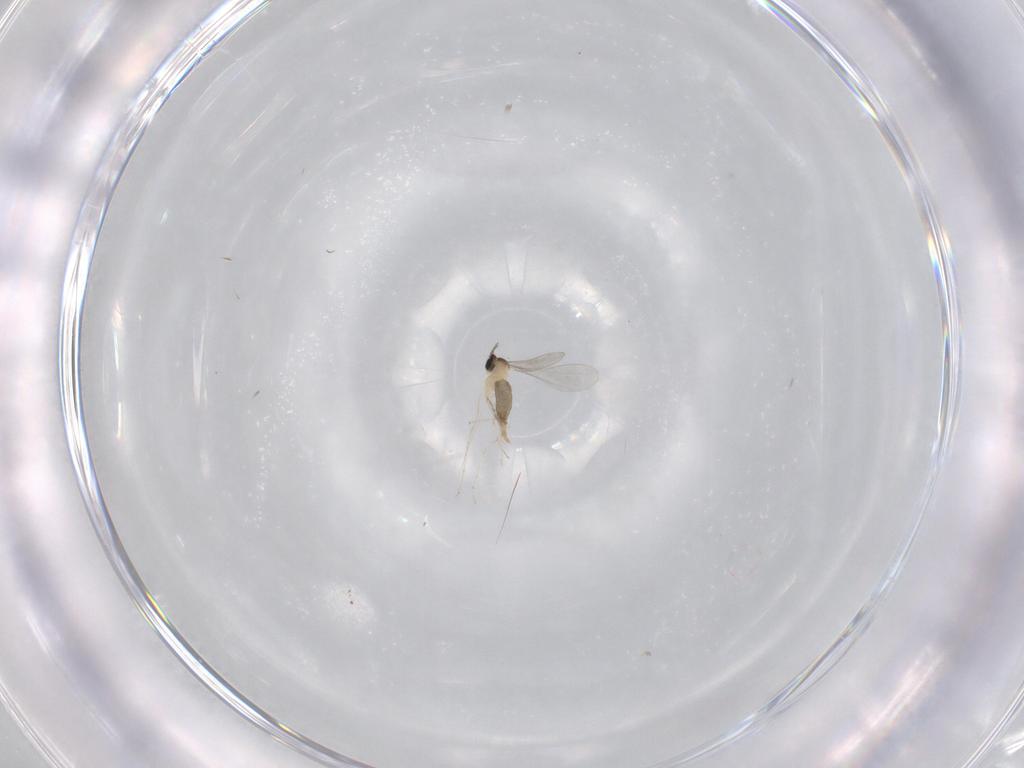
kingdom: Animalia
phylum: Arthropoda
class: Insecta
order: Diptera
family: Cecidomyiidae
